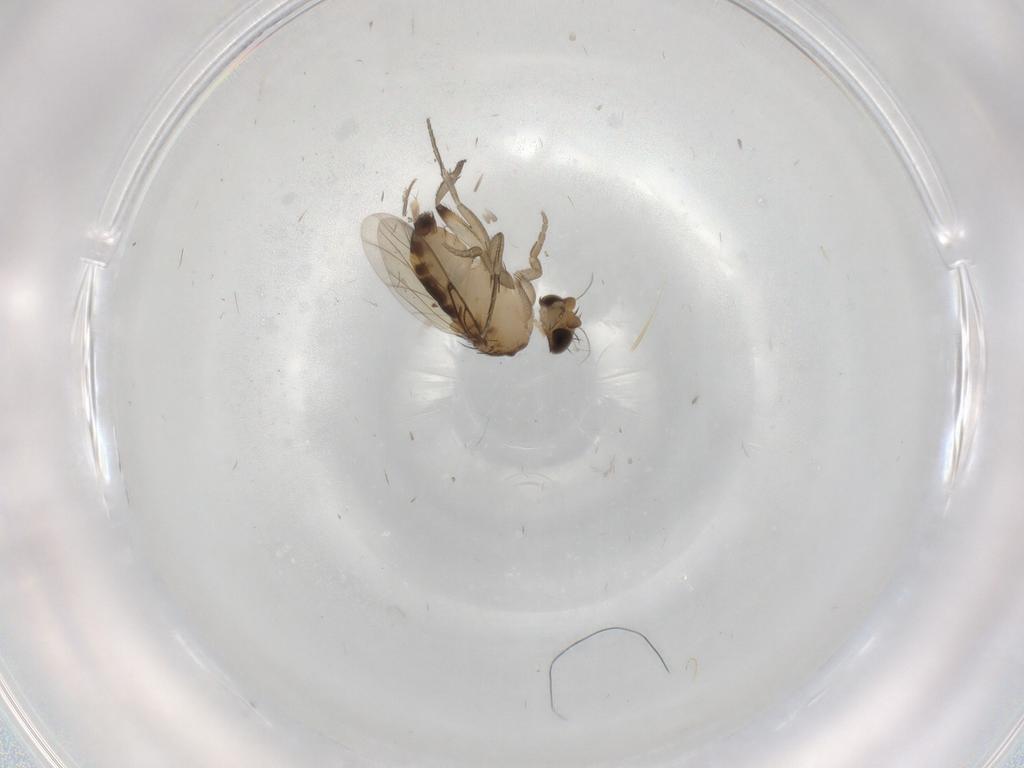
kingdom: Animalia
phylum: Arthropoda
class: Insecta
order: Diptera
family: Phoridae
